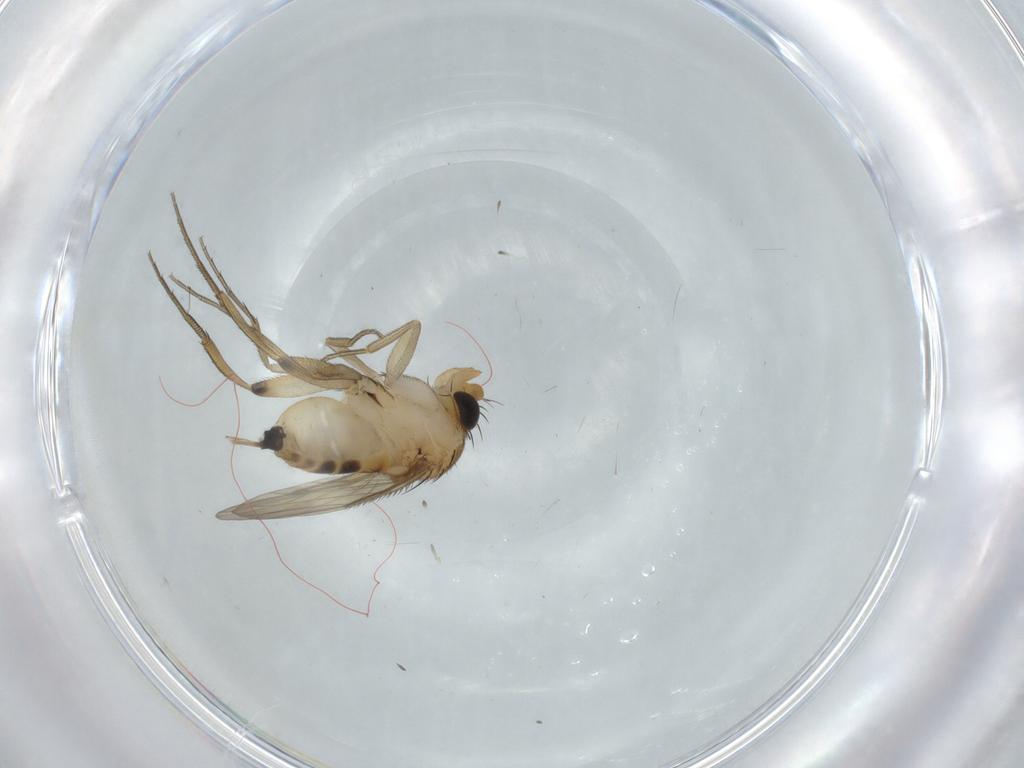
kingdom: Animalia
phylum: Arthropoda
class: Insecta
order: Diptera
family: Phoridae
